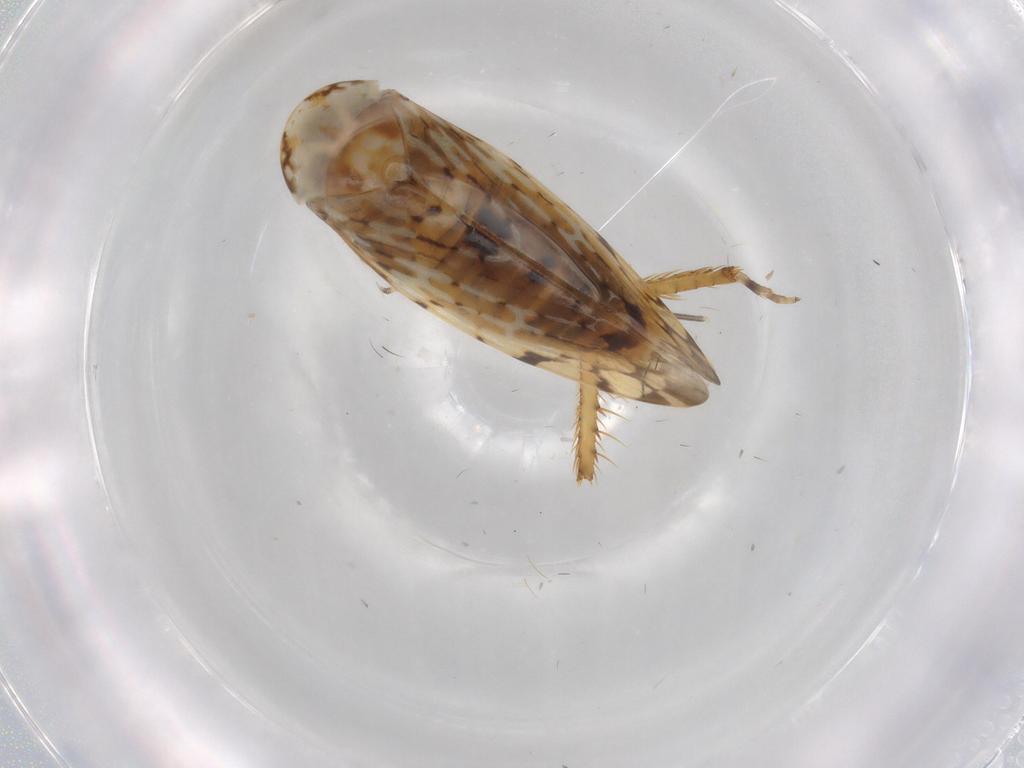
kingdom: Animalia
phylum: Arthropoda
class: Insecta
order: Hemiptera
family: Cicadellidae
